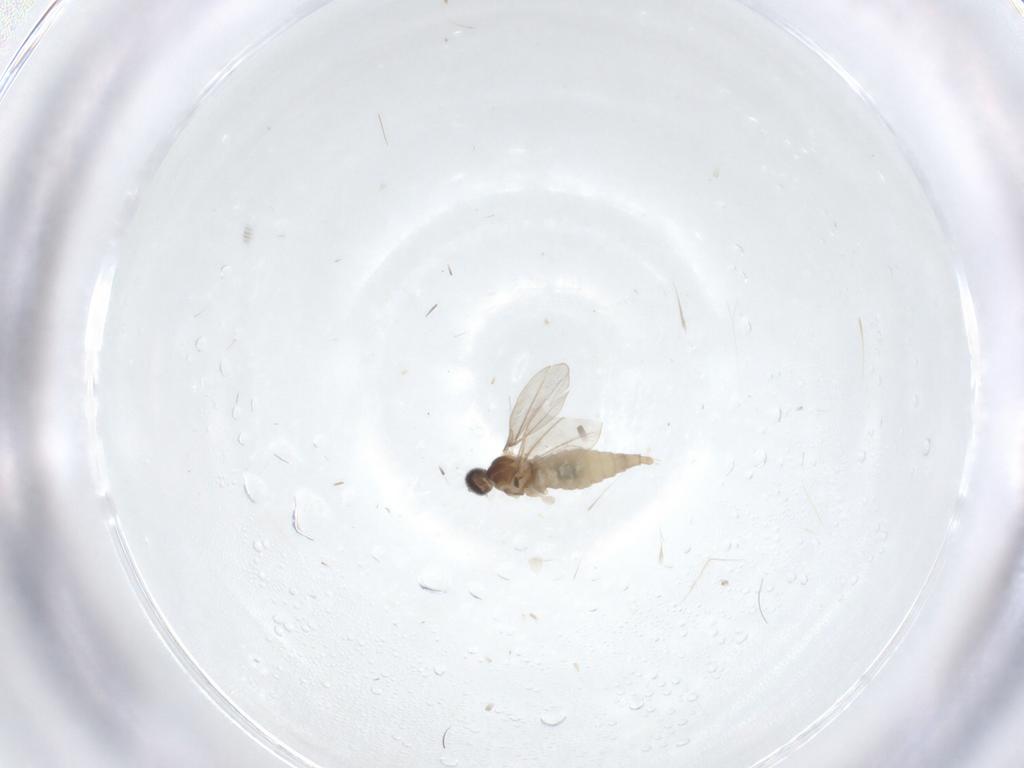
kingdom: Animalia
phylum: Arthropoda
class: Insecta
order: Diptera
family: Cecidomyiidae
